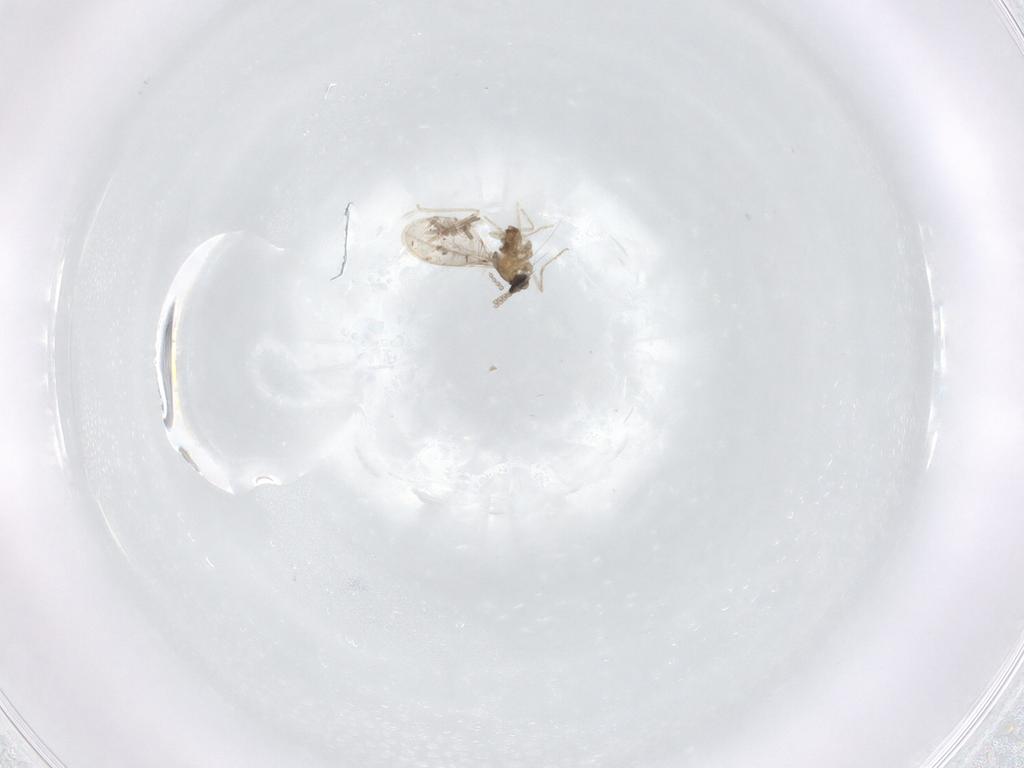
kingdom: Animalia
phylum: Arthropoda
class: Insecta
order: Diptera
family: Cecidomyiidae
